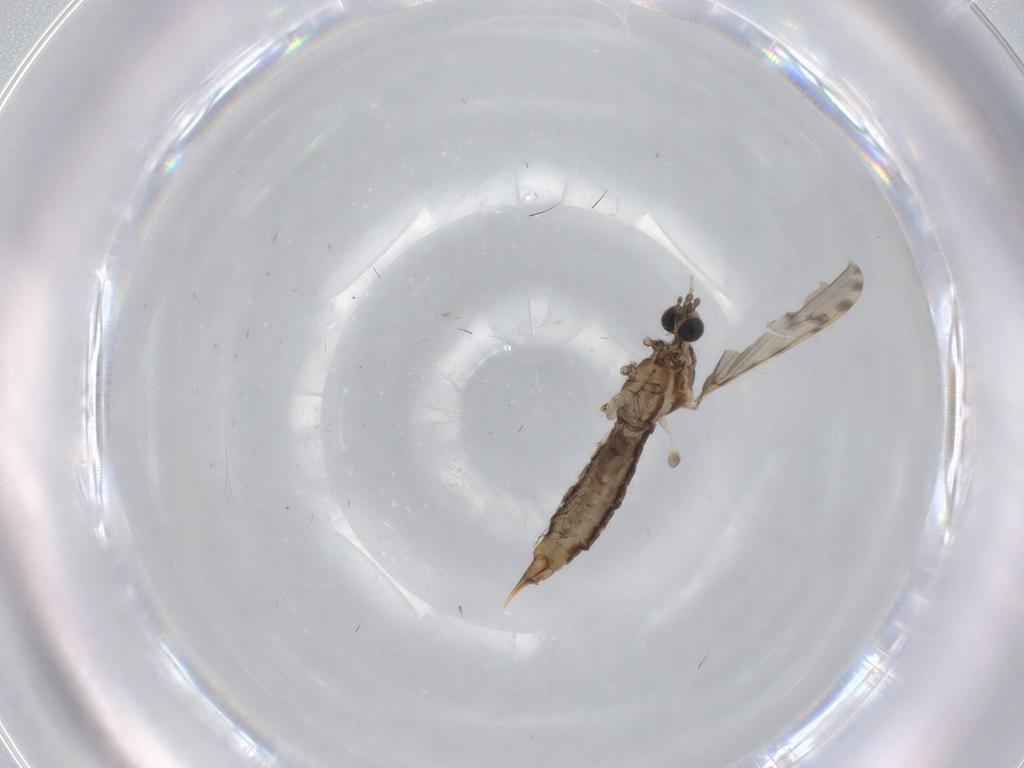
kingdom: Animalia
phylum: Arthropoda
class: Insecta
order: Diptera
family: Limoniidae
